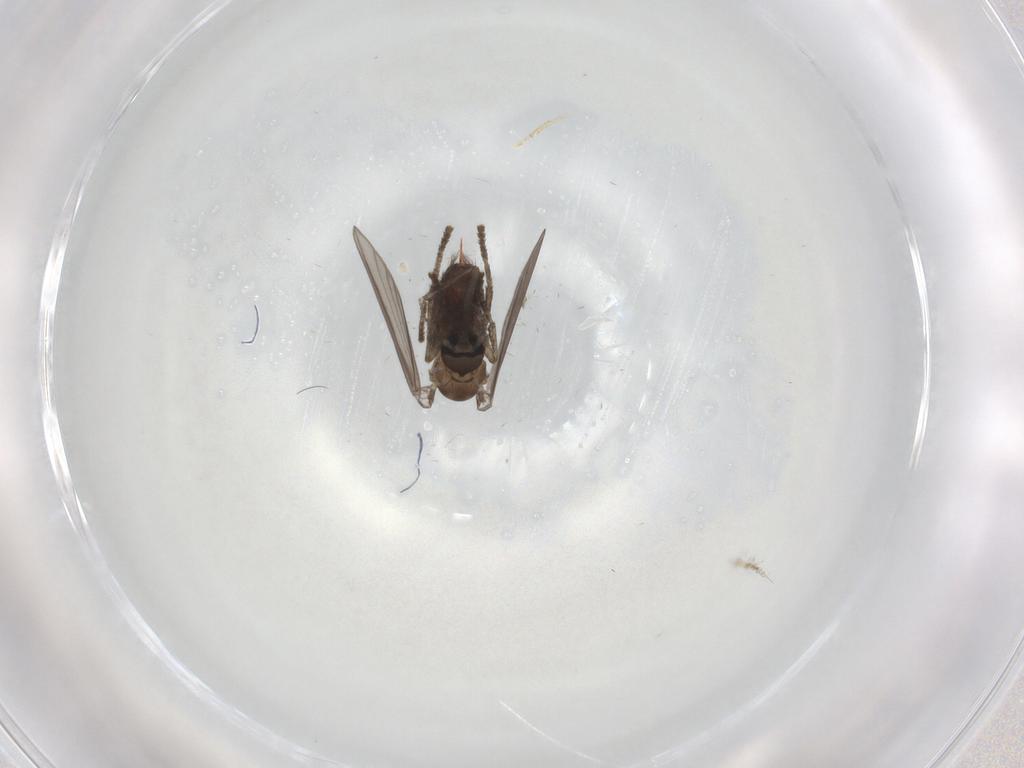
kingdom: Animalia
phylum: Arthropoda
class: Insecta
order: Diptera
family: Psychodidae
